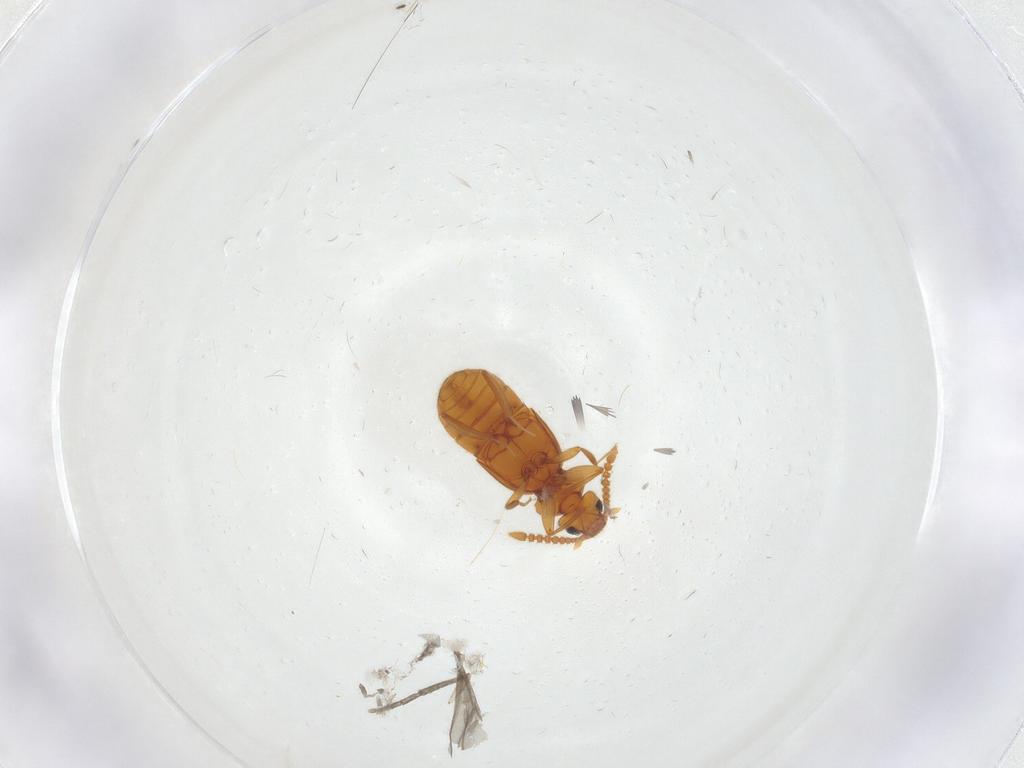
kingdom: Animalia
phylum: Arthropoda
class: Insecta
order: Coleoptera
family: Staphylinidae
